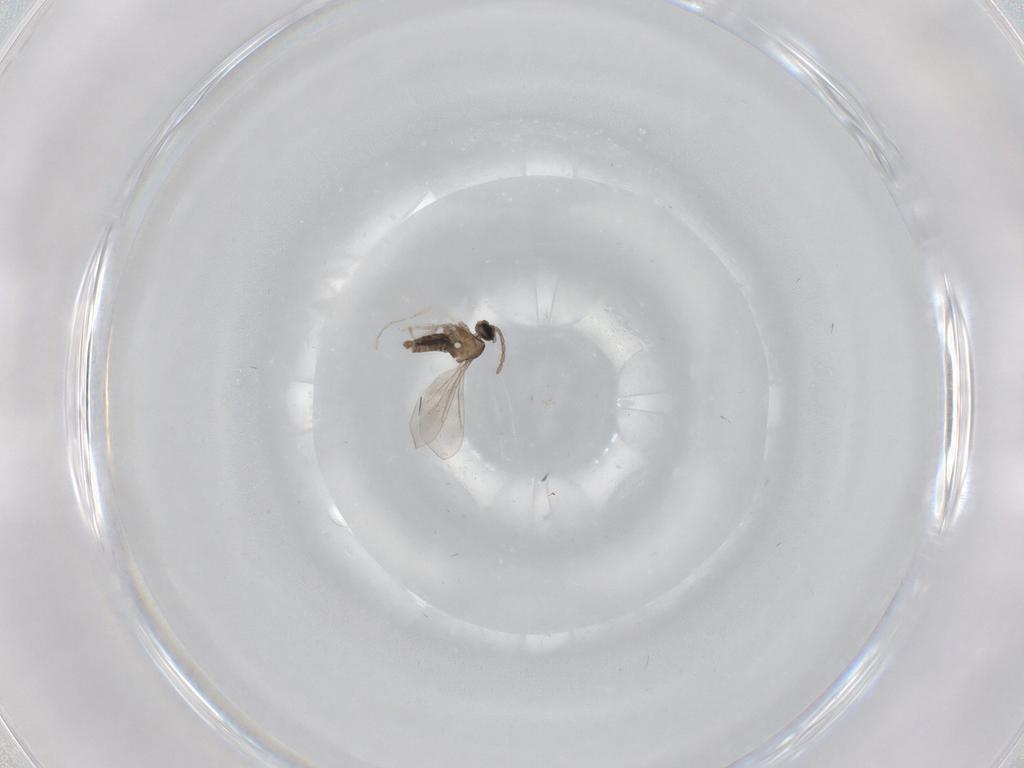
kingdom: Animalia
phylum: Arthropoda
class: Insecta
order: Diptera
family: Cecidomyiidae
